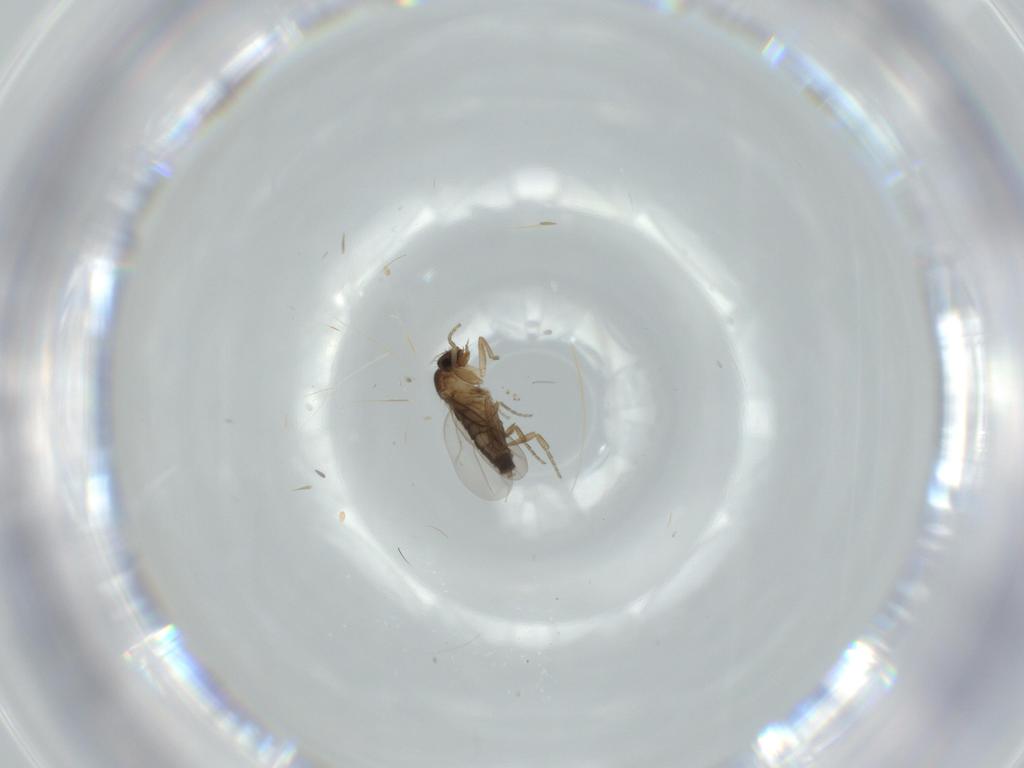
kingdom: Animalia
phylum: Arthropoda
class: Insecta
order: Diptera
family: Phoridae
